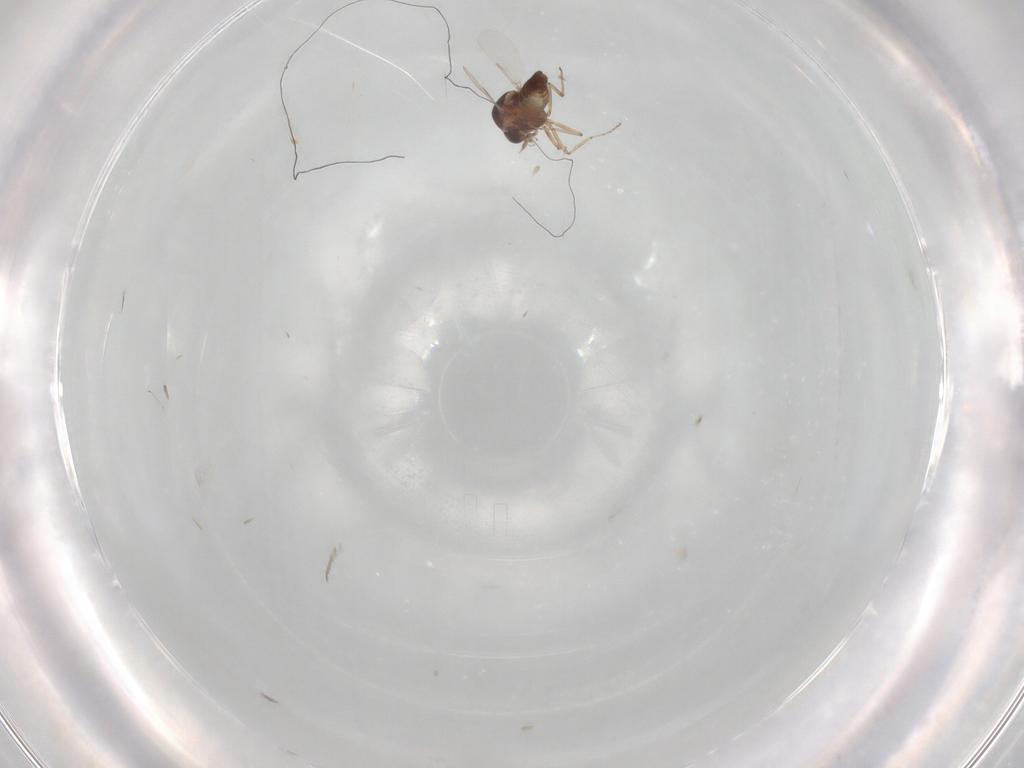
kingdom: Animalia
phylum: Arthropoda
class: Insecta
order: Diptera
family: Ceratopogonidae
